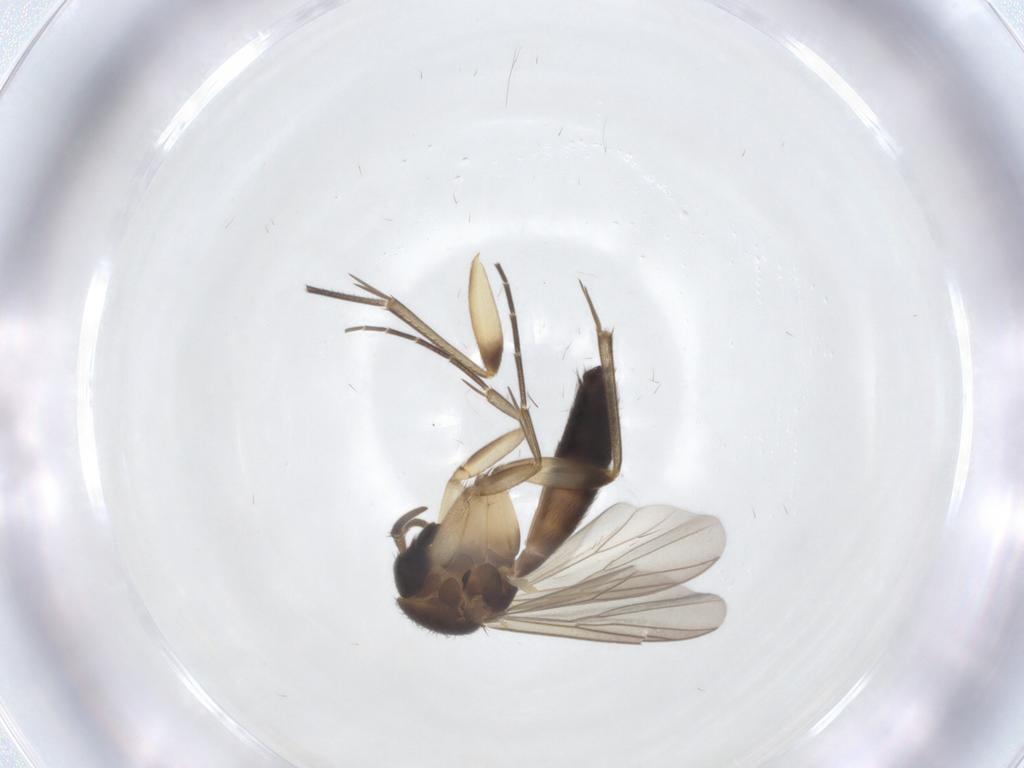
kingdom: Animalia
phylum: Arthropoda
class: Insecta
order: Diptera
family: Mycetophilidae
